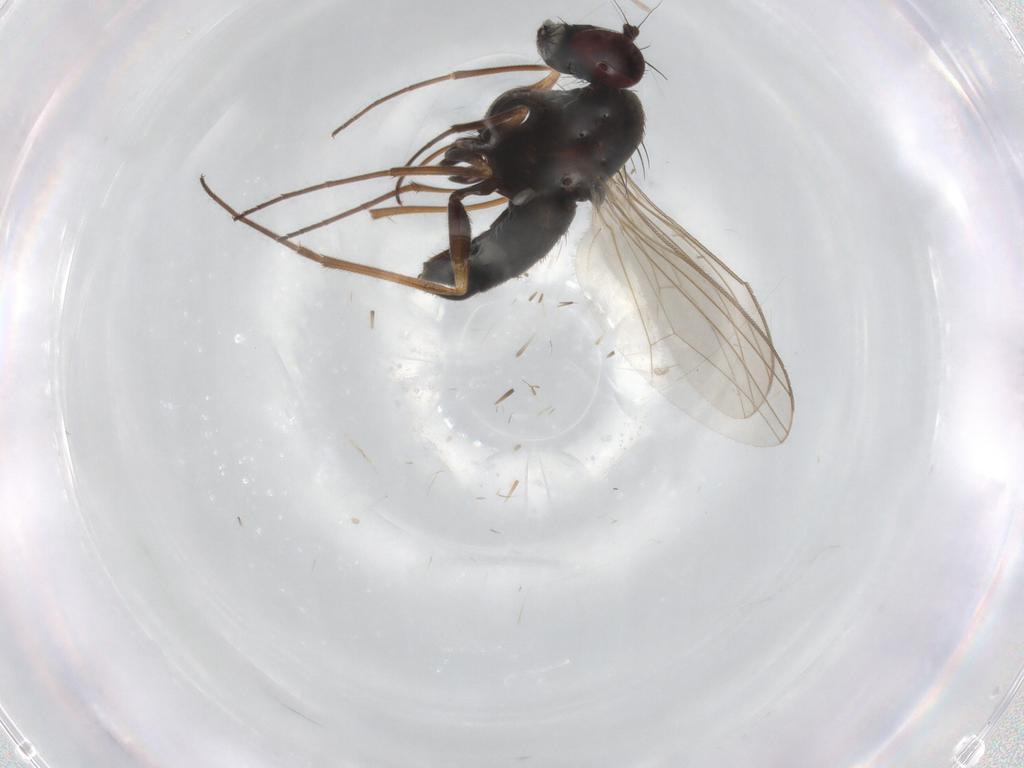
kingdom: Animalia
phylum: Arthropoda
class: Insecta
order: Diptera
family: Dolichopodidae
